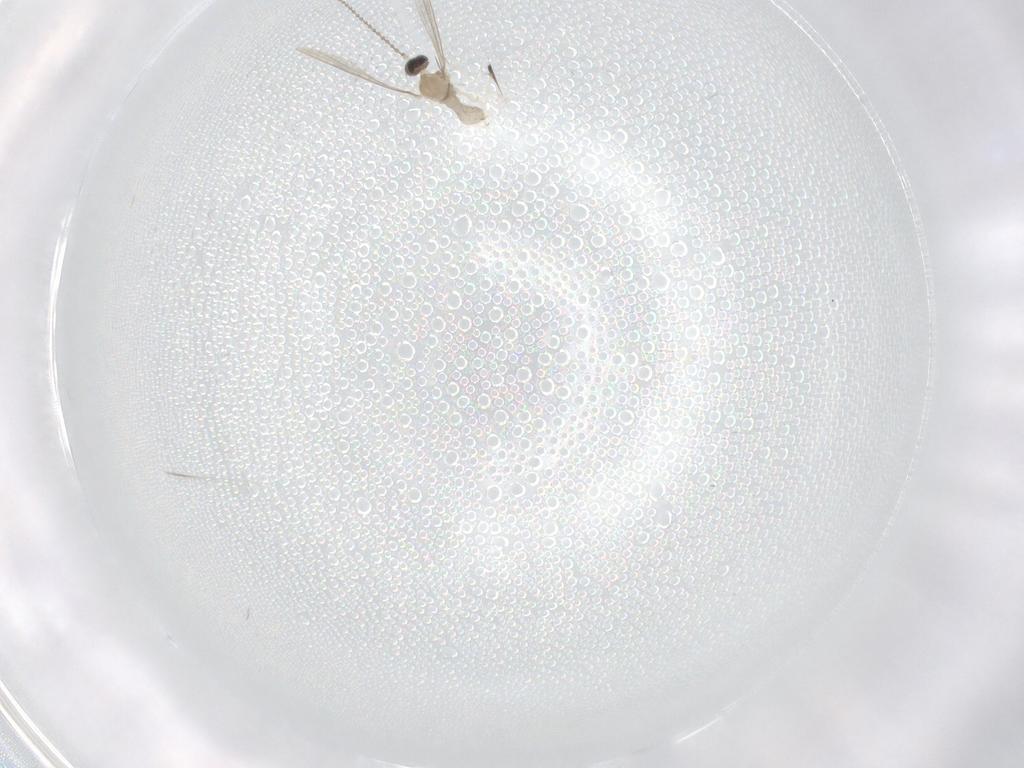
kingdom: Animalia
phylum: Arthropoda
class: Insecta
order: Diptera
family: Cecidomyiidae
